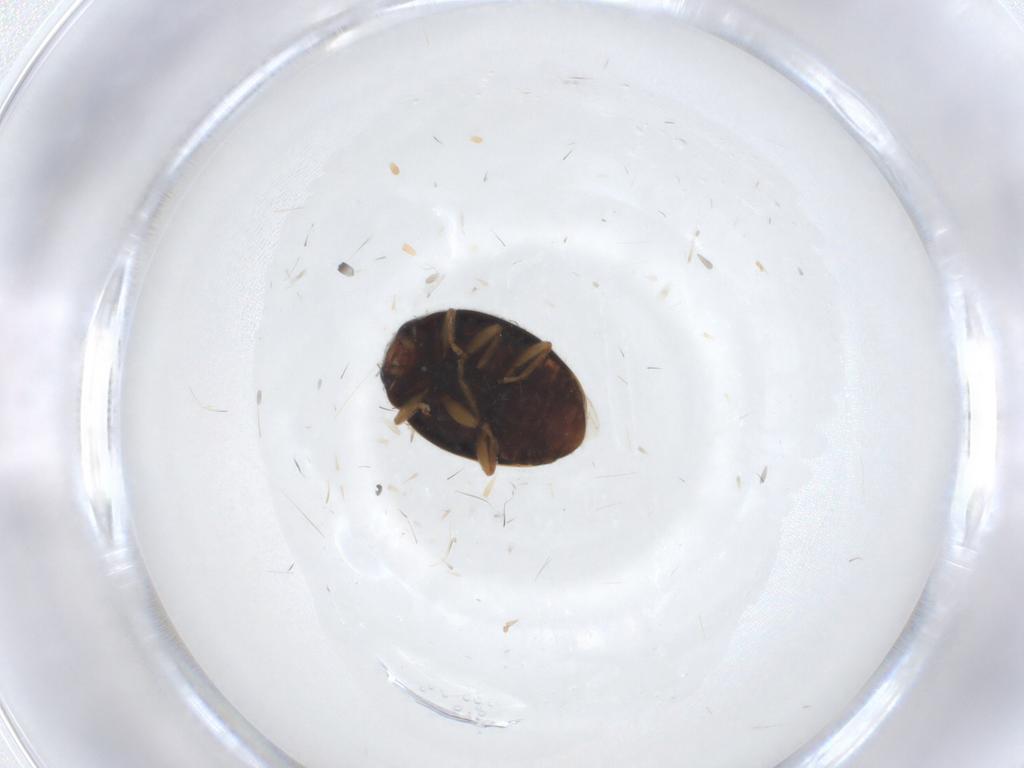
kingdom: Animalia
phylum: Arthropoda
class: Insecta
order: Coleoptera
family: Coccinellidae
